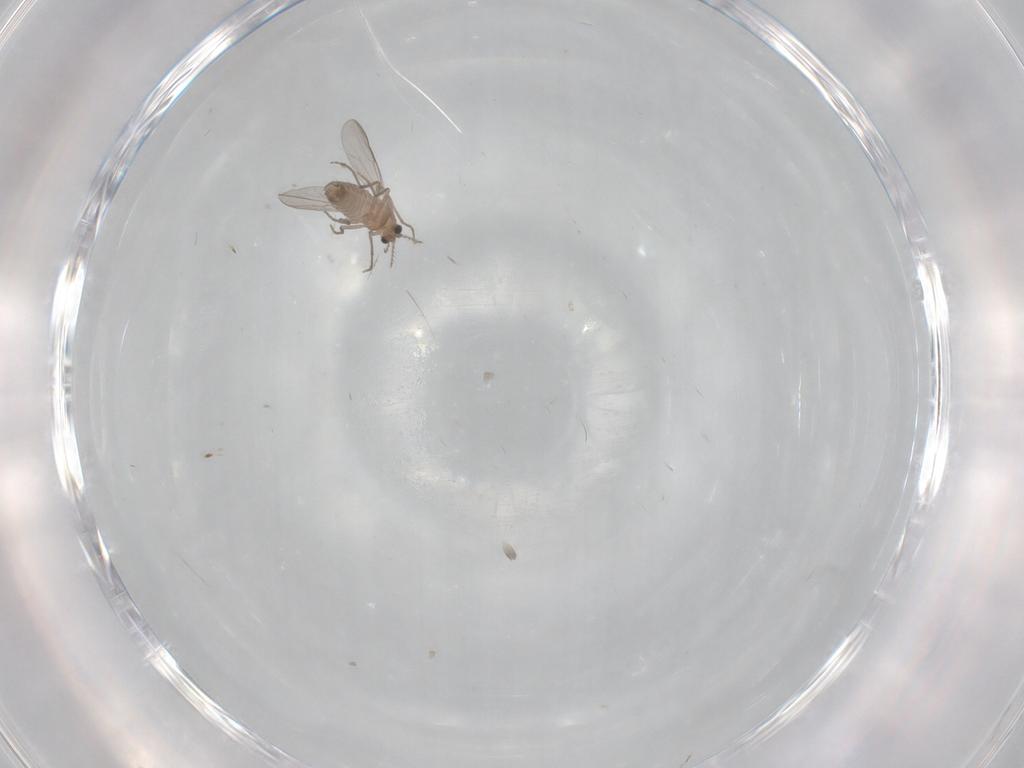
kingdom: Animalia
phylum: Arthropoda
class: Insecta
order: Diptera
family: Chironomidae
